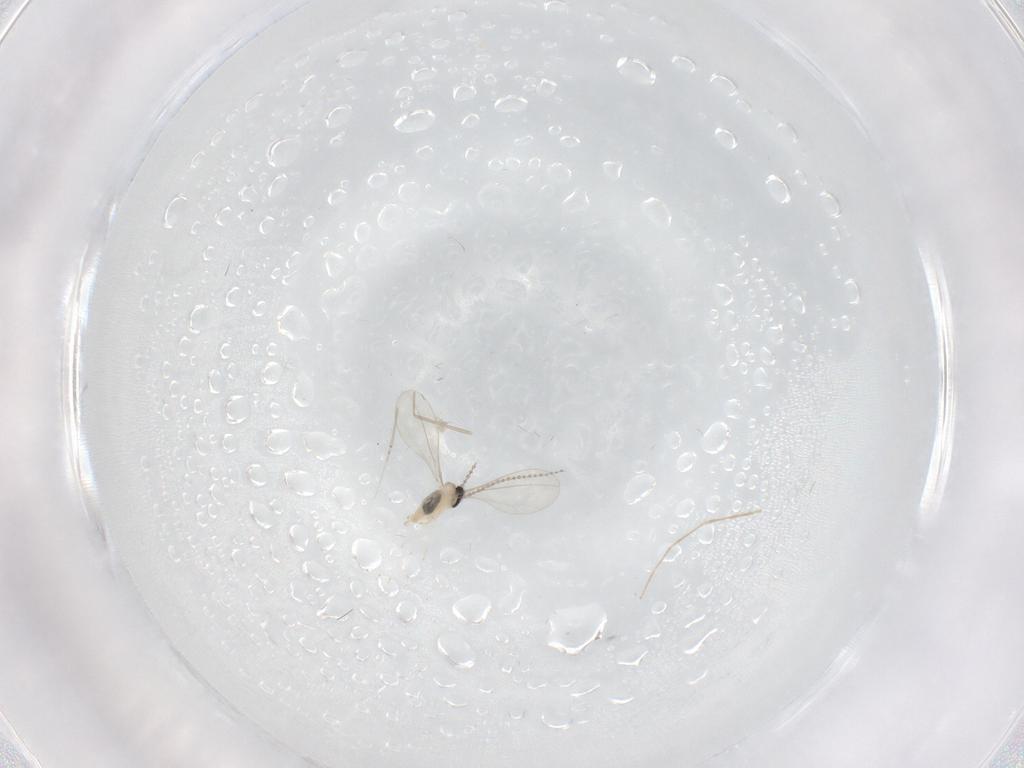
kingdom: Animalia
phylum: Arthropoda
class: Insecta
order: Diptera
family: Cecidomyiidae
